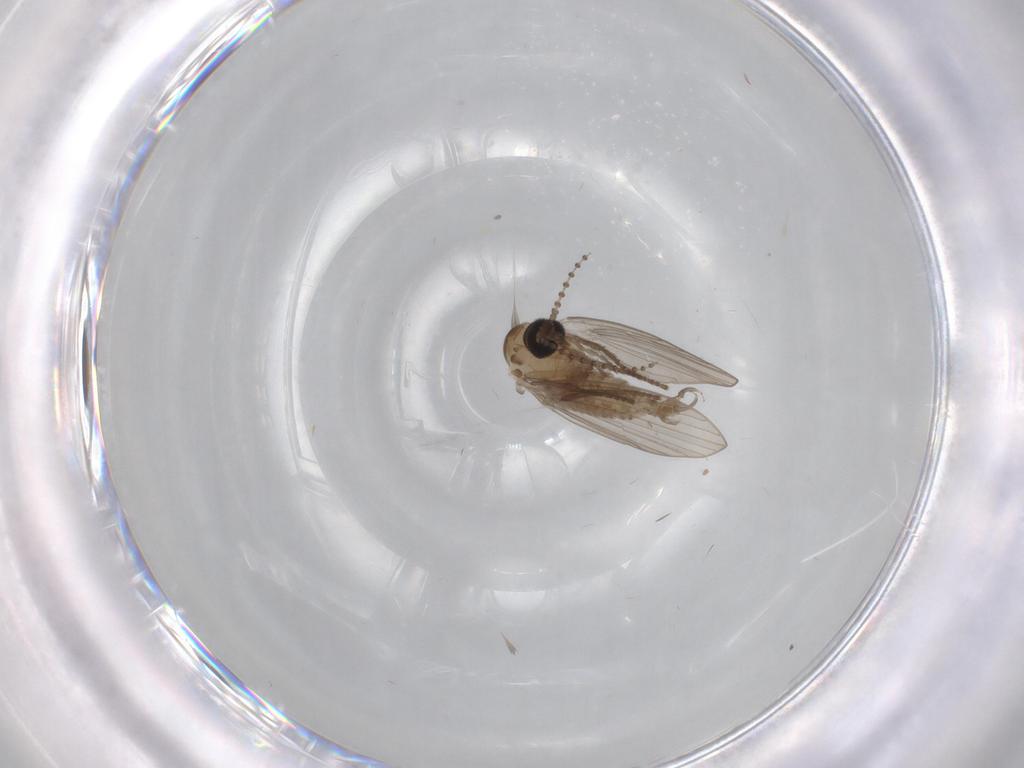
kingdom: Animalia
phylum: Arthropoda
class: Insecta
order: Diptera
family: Psychodidae
